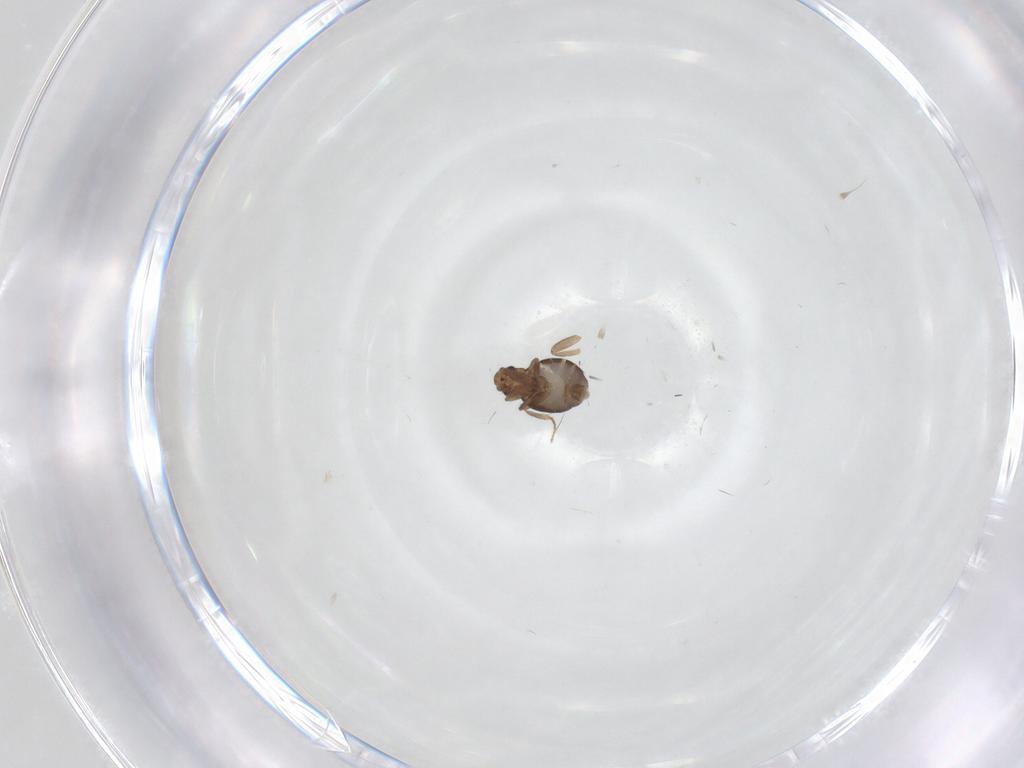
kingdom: Animalia
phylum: Arthropoda
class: Insecta
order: Diptera
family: Phoridae
